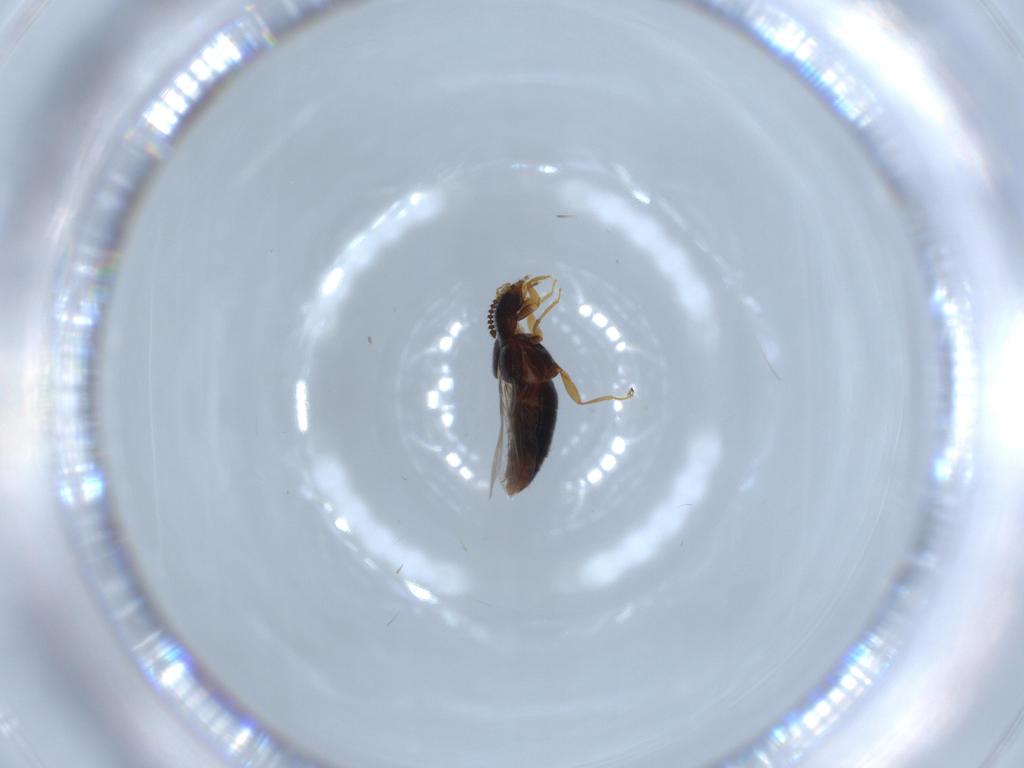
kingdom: Animalia
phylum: Arthropoda
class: Insecta
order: Coleoptera
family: Staphylinidae
